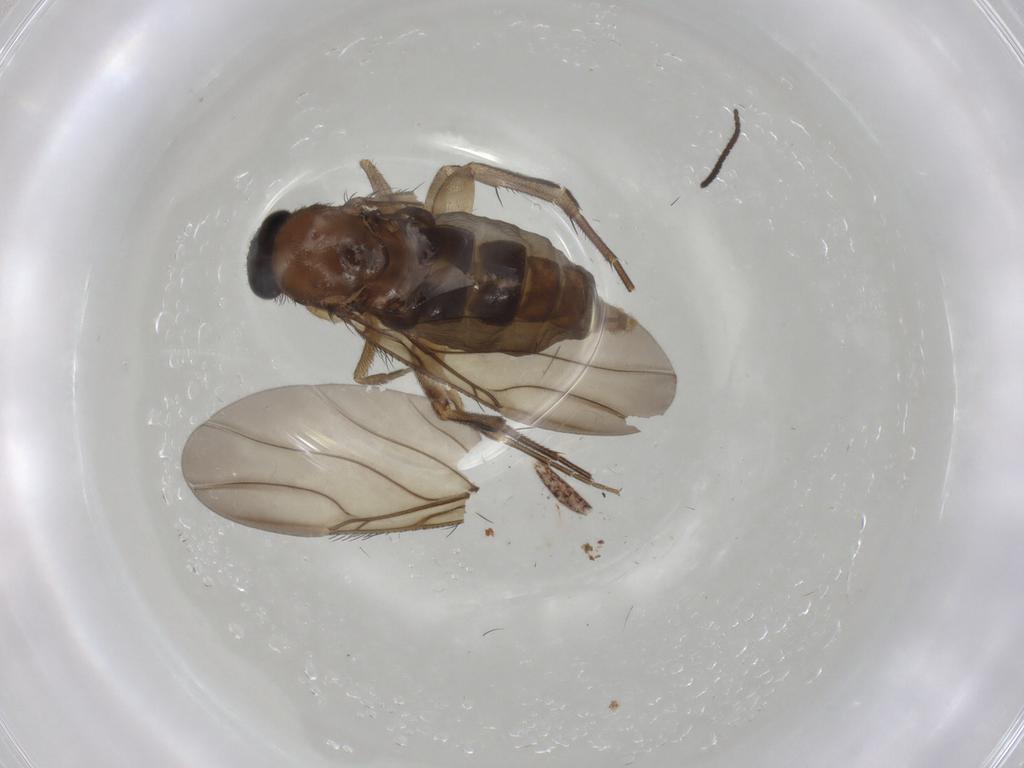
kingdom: Animalia
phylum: Arthropoda
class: Insecta
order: Diptera
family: Phoridae
